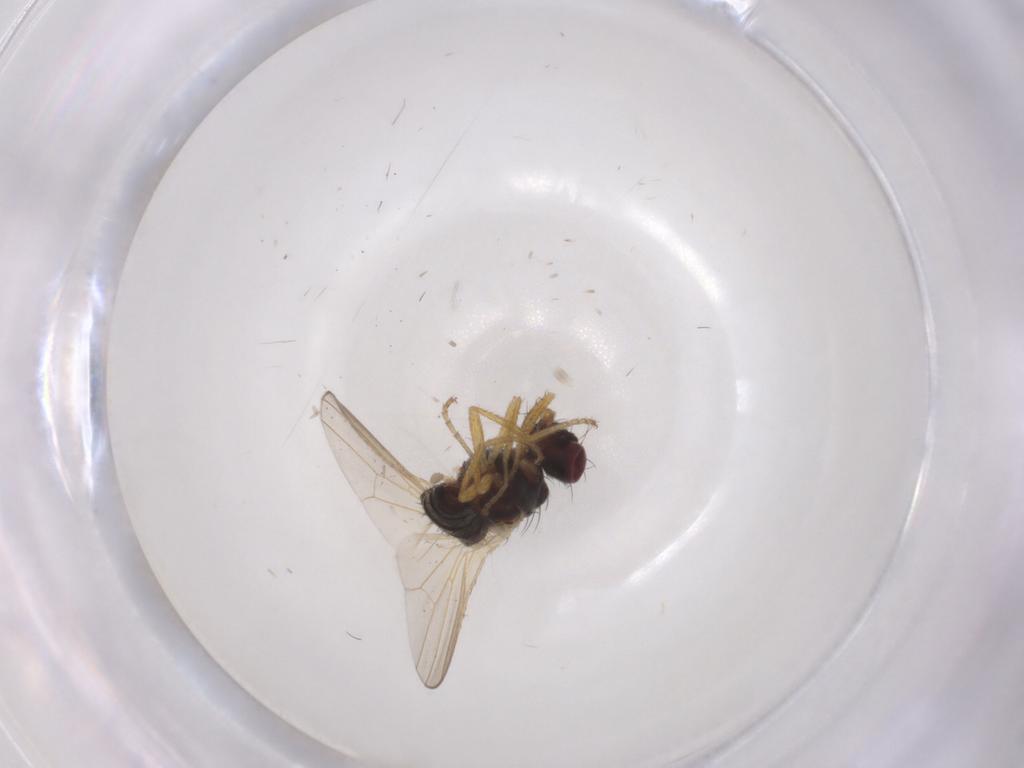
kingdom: Animalia
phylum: Arthropoda
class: Insecta
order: Diptera
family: Heleomyzidae
